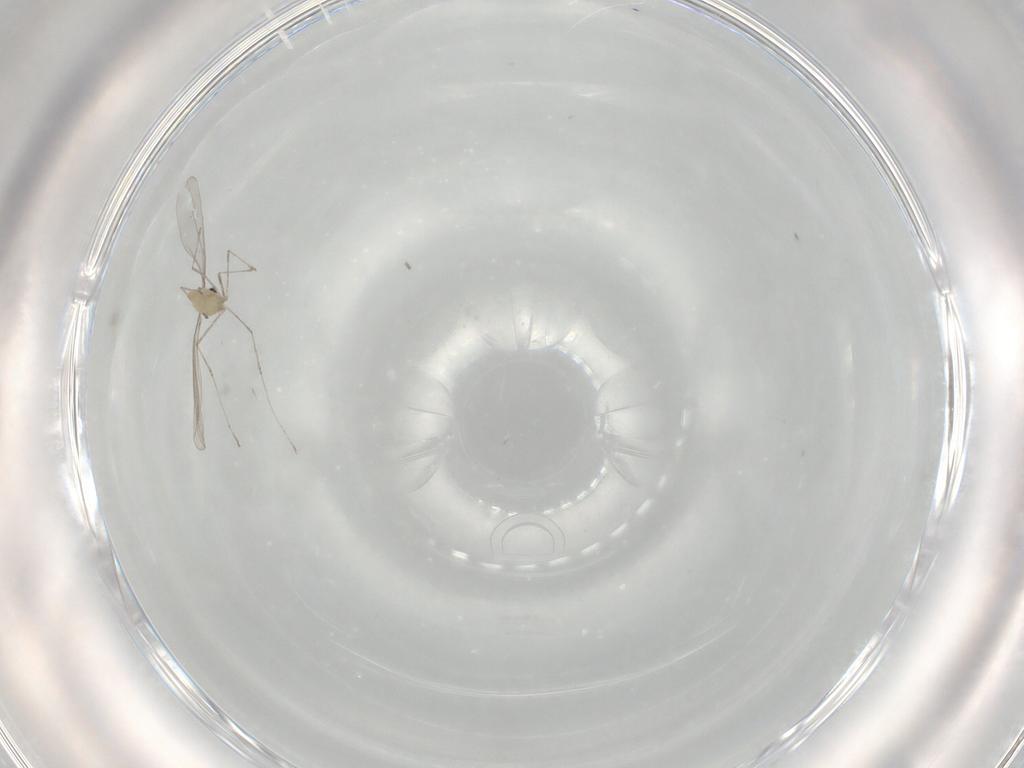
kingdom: Animalia
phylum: Arthropoda
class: Insecta
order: Diptera
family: Cecidomyiidae
